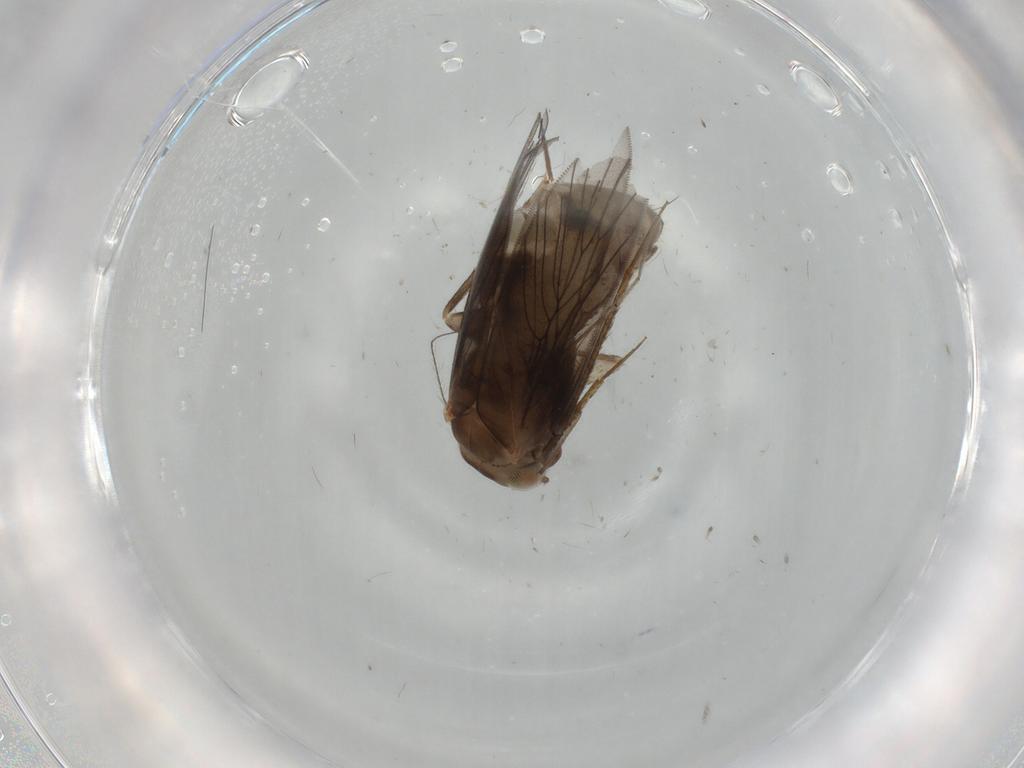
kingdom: Animalia
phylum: Arthropoda
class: Insecta
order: Psocodea
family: Lepidopsocidae
